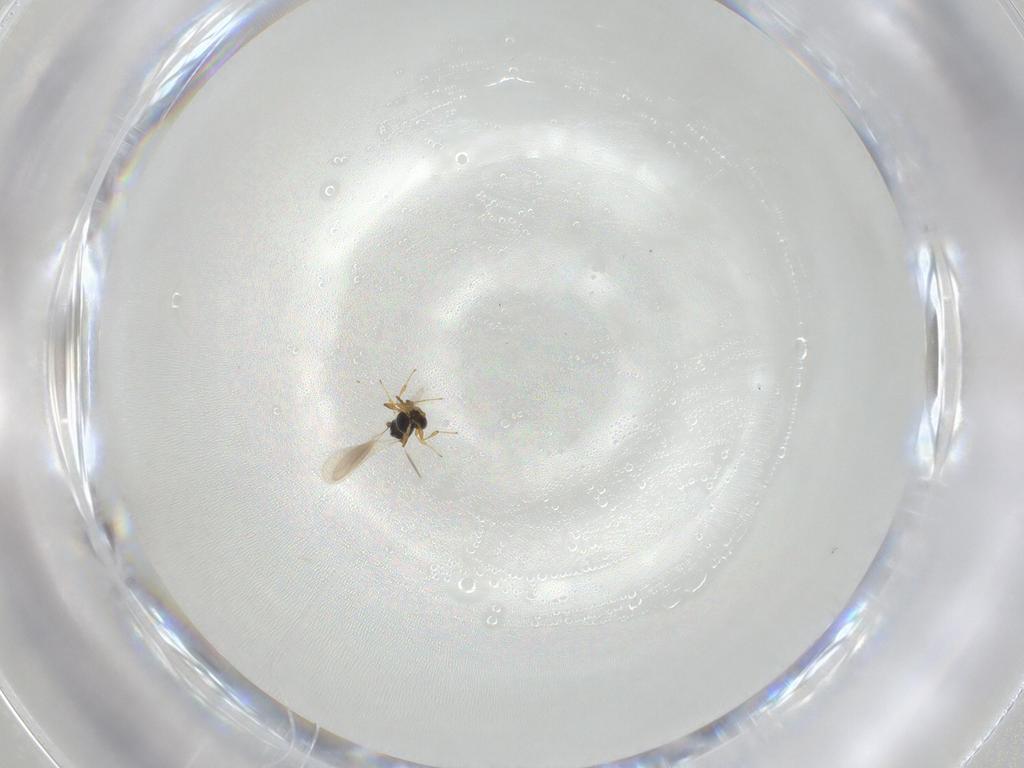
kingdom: Animalia
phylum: Arthropoda
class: Insecta
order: Hymenoptera
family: Platygastridae
